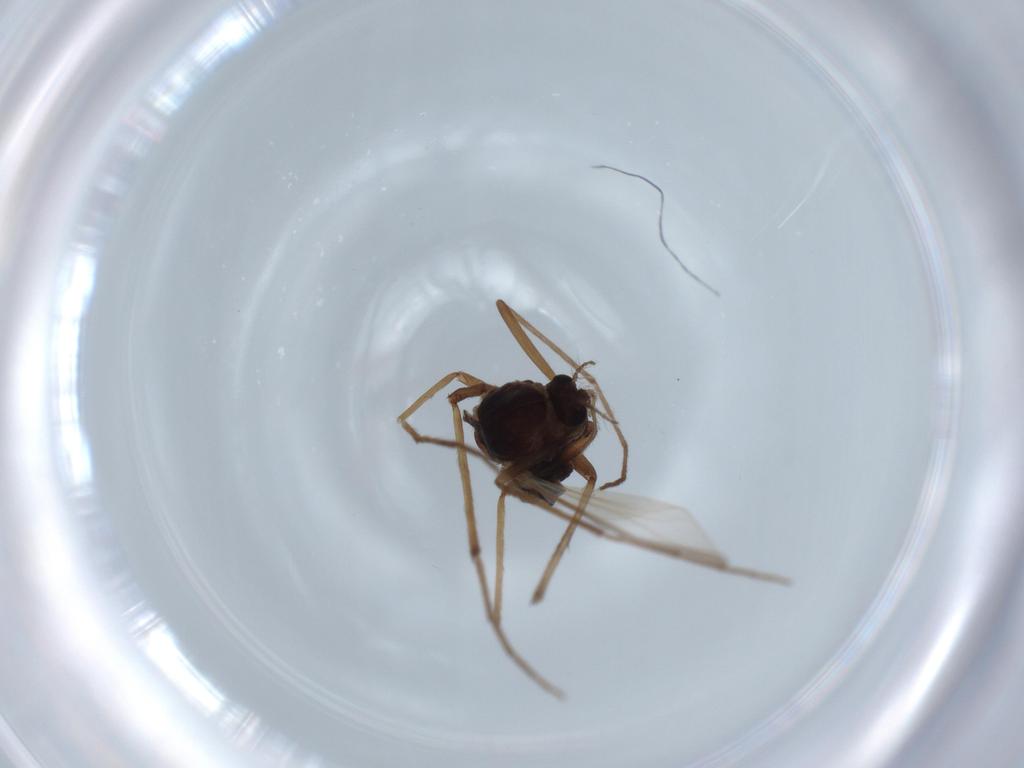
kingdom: Animalia
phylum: Arthropoda
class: Insecta
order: Diptera
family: Chironomidae
